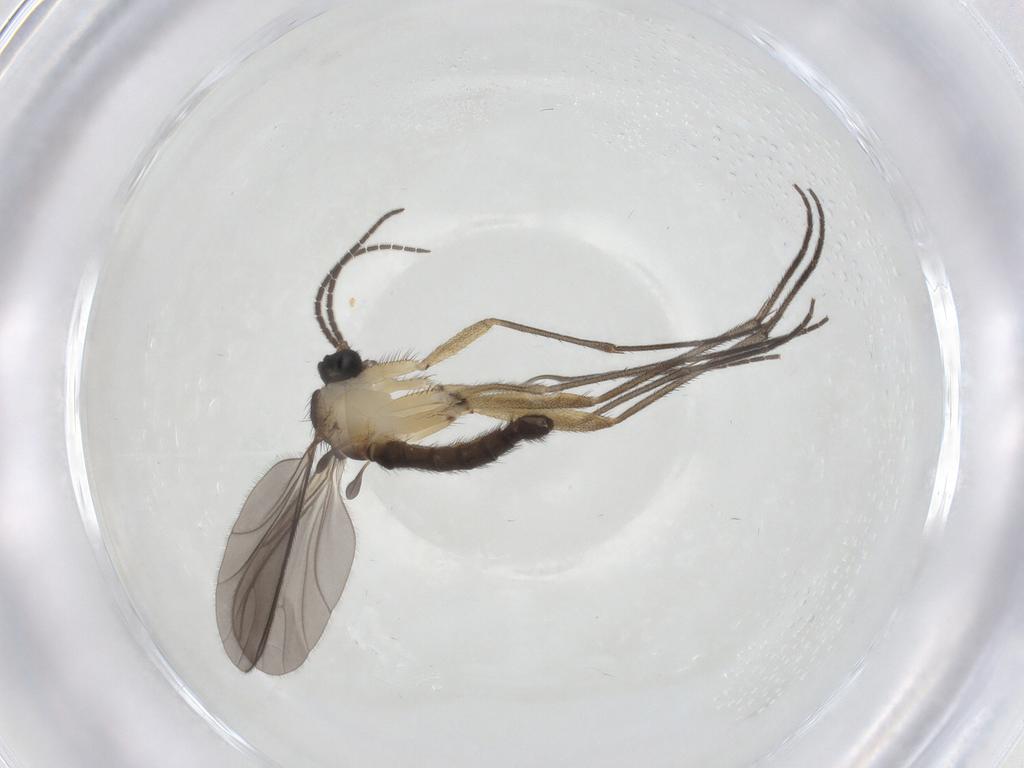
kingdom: Animalia
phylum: Arthropoda
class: Insecta
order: Diptera
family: Sciaridae
